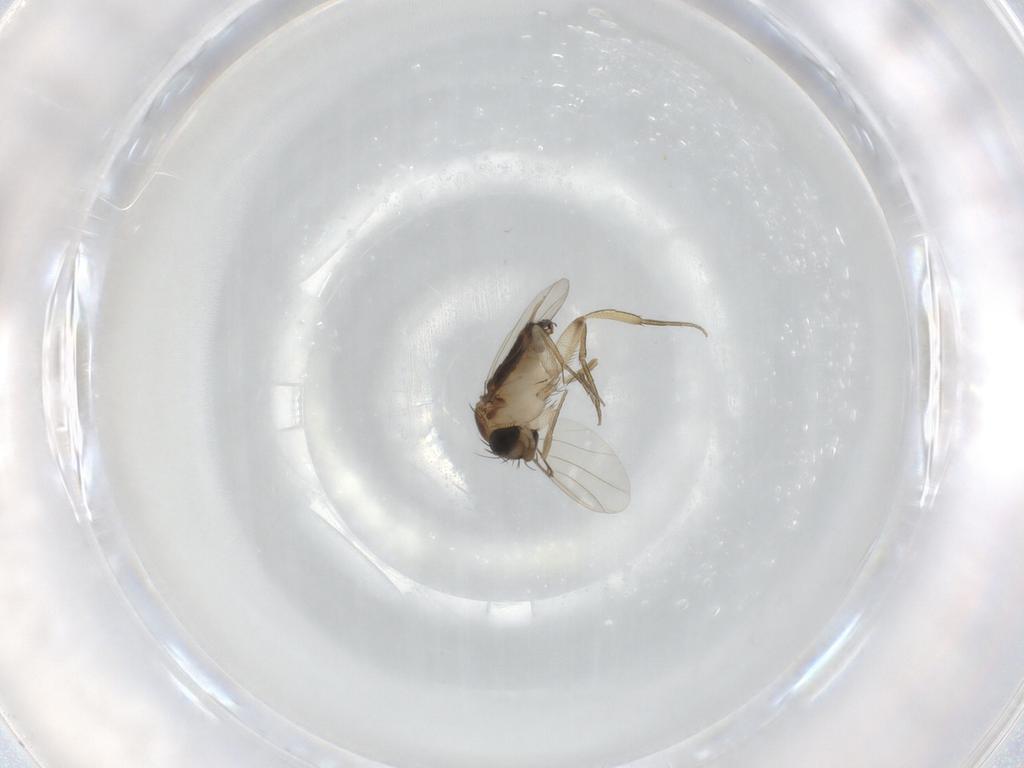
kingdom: Animalia
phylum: Arthropoda
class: Insecta
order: Diptera
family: Phoridae
